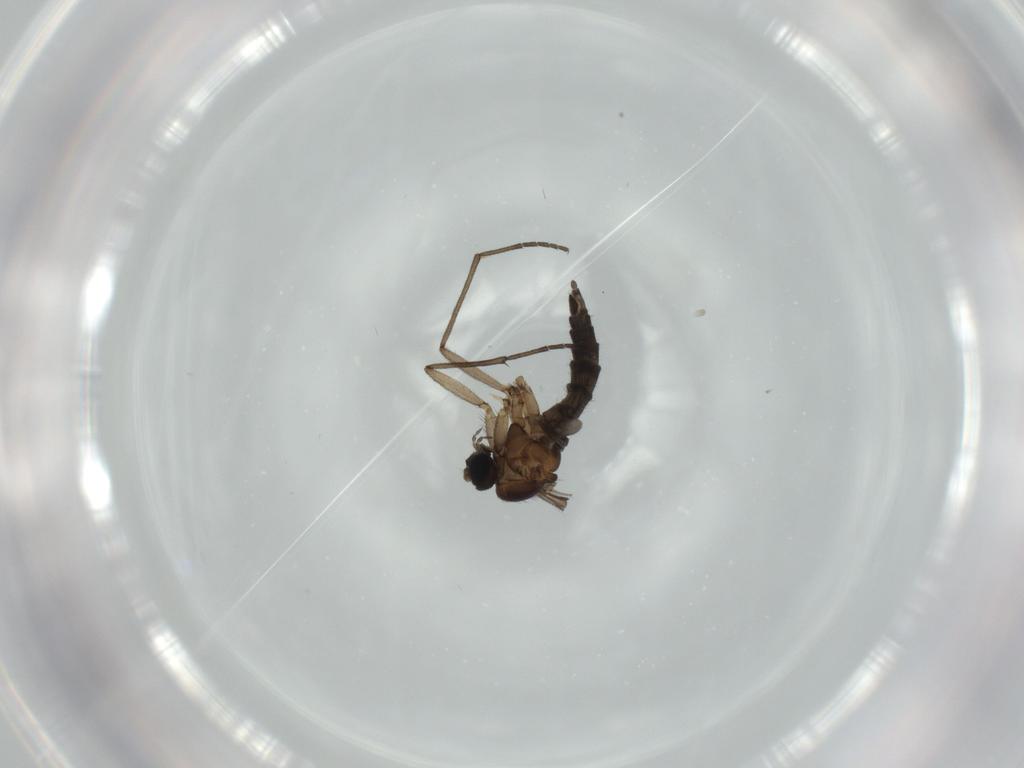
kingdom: Animalia
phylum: Arthropoda
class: Insecta
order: Diptera
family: Sciaridae
